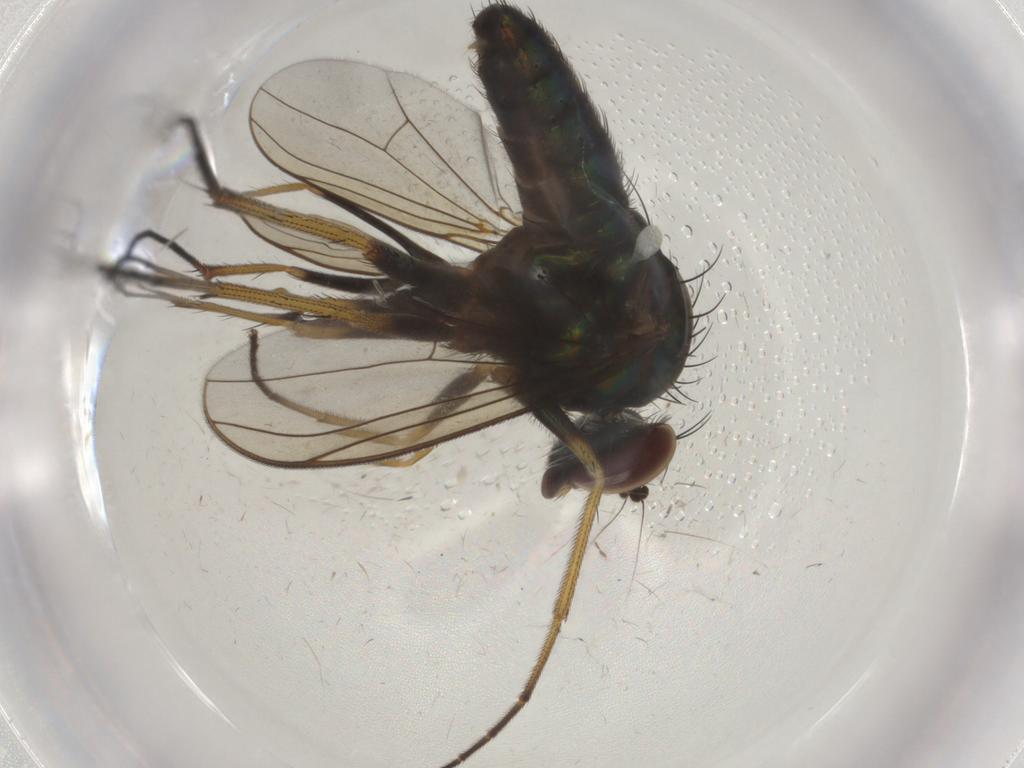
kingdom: Animalia
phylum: Arthropoda
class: Insecta
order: Diptera
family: Dolichopodidae
